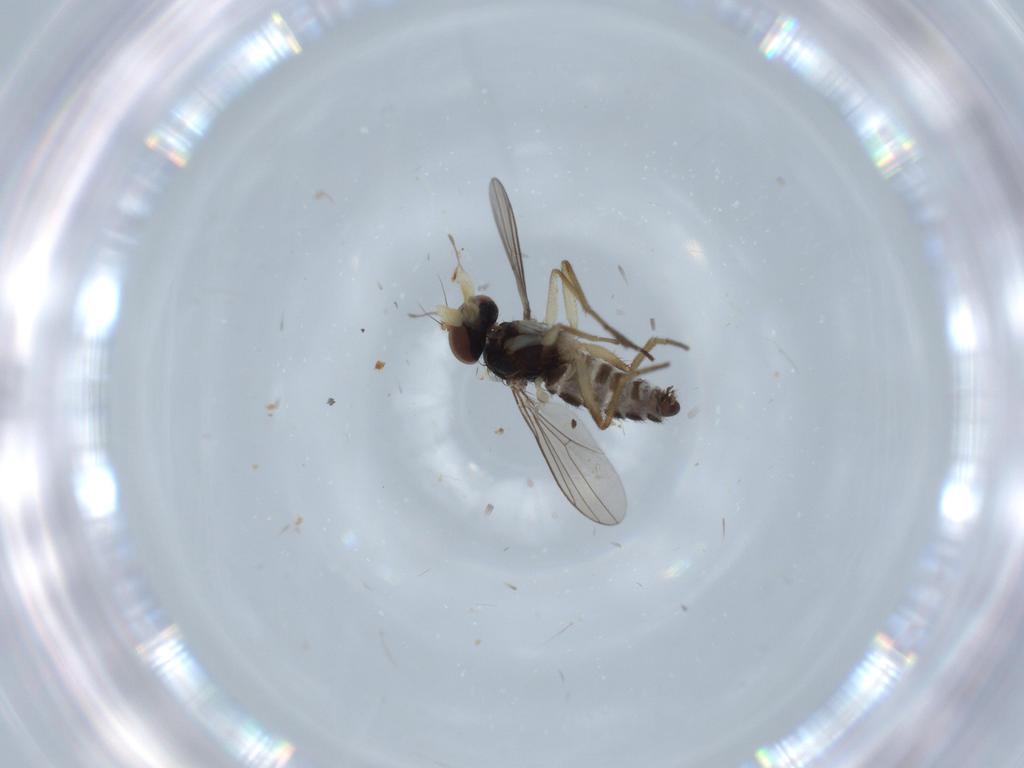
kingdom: Animalia
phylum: Arthropoda
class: Insecta
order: Diptera
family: Dolichopodidae
